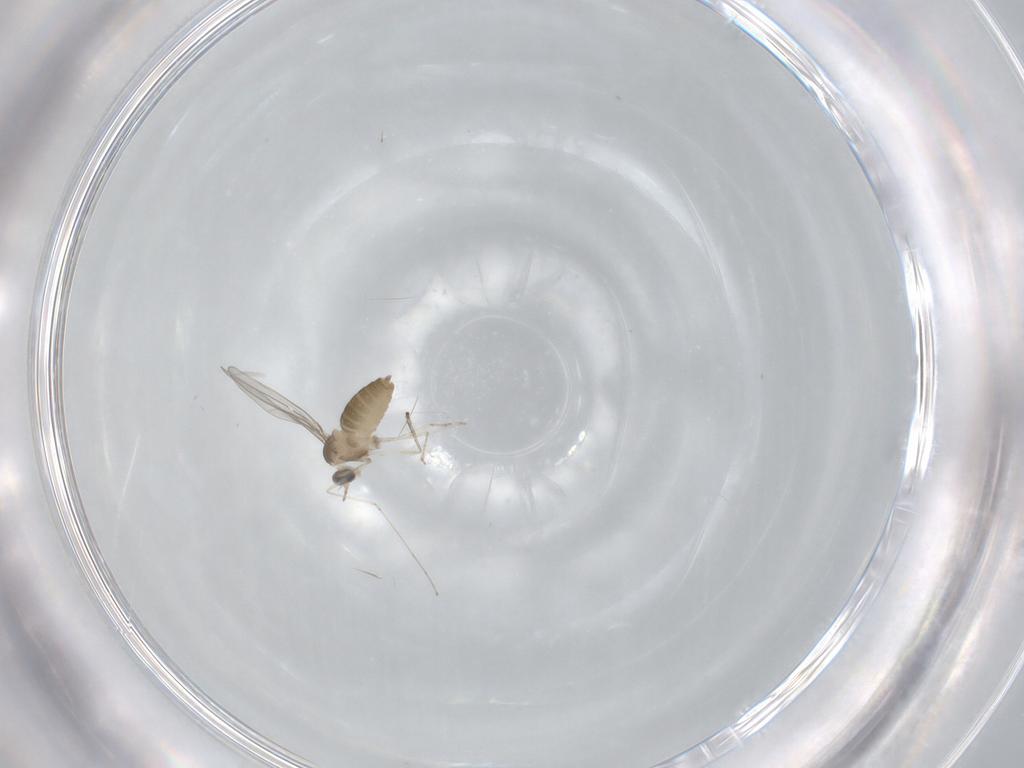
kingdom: Animalia
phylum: Arthropoda
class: Insecta
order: Diptera
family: Cecidomyiidae
